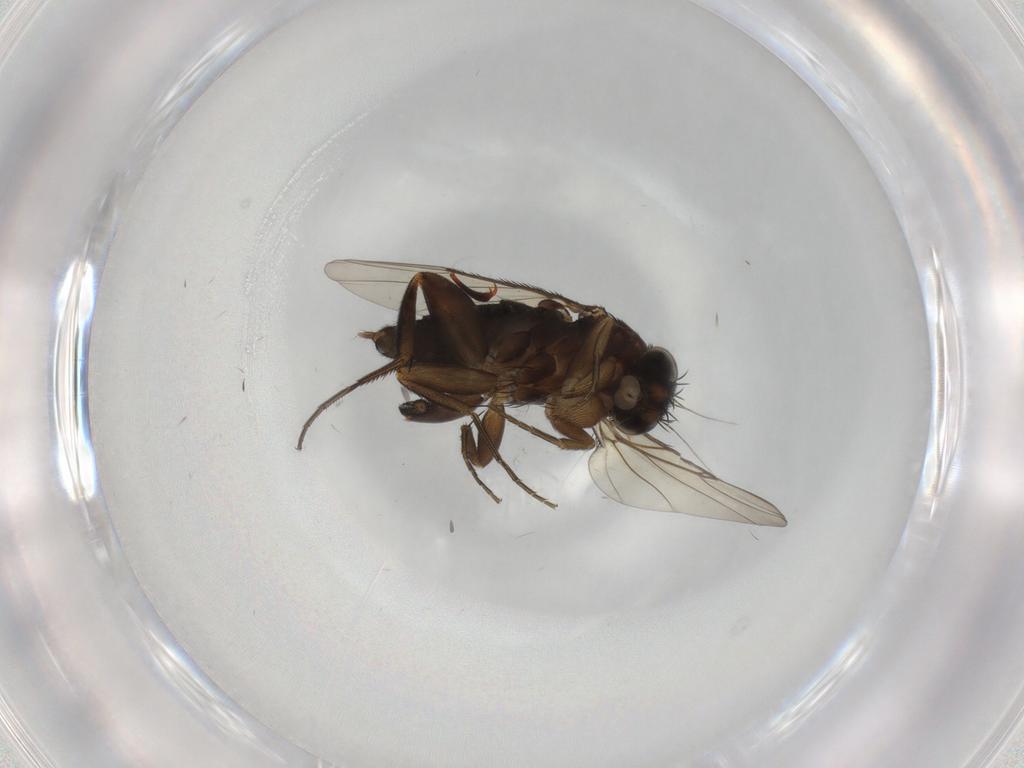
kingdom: Animalia
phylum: Arthropoda
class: Insecta
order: Diptera
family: Phoridae
